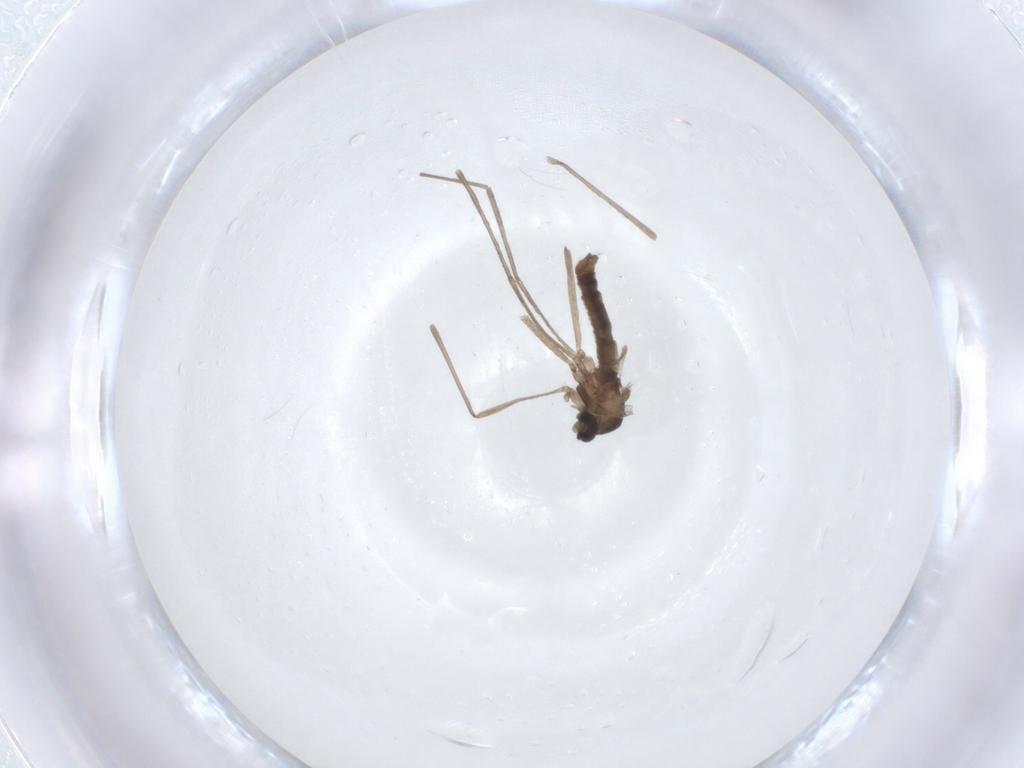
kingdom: Animalia
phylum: Arthropoda
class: Insecta
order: Diptera
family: Cecidomyiidae
